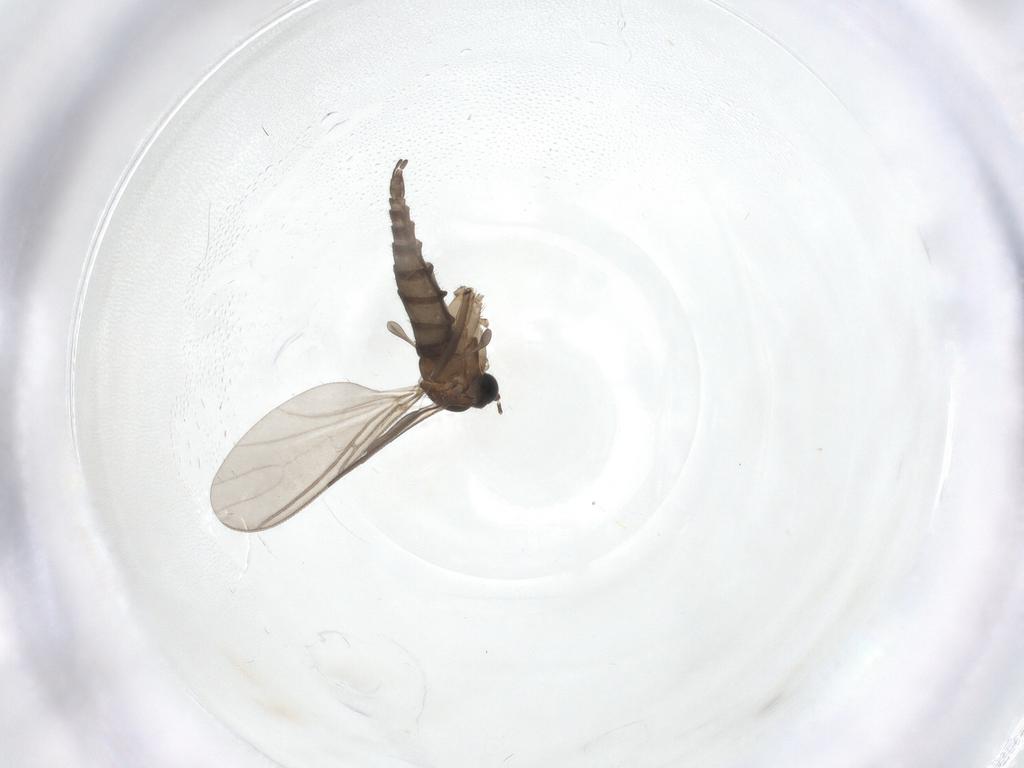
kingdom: Animalia
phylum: Arthropoda
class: Insecta
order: Diptera
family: Sciaridae
